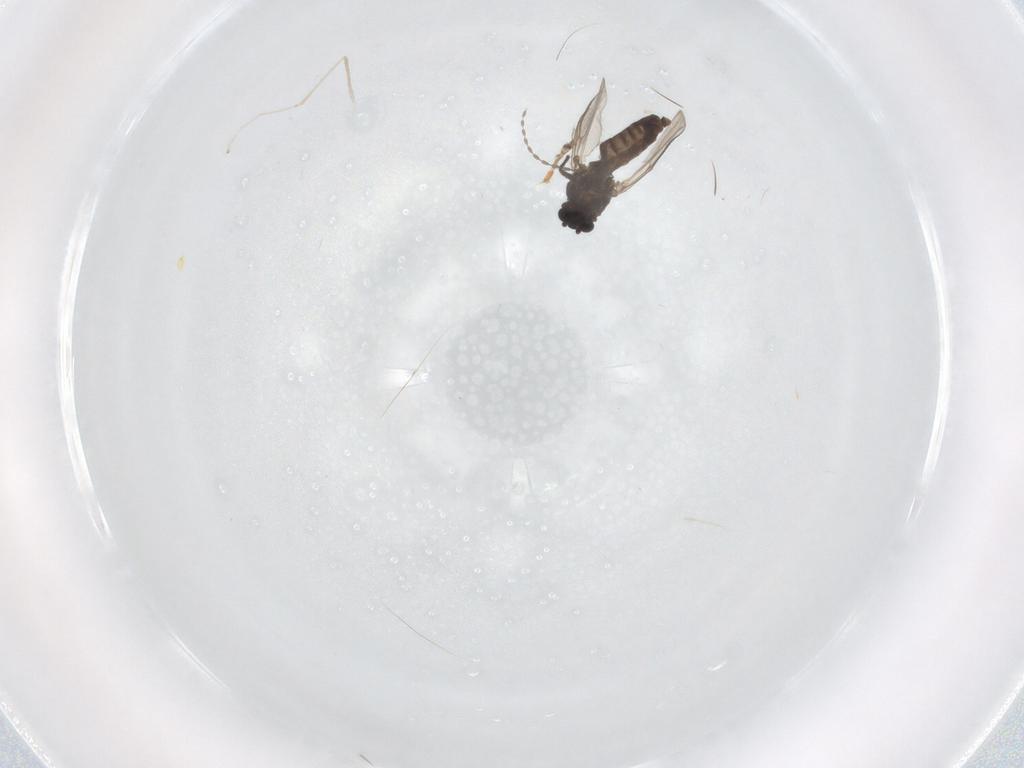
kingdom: Animalia
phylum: Arthropoda
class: Insecta
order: Diptera
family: Chironomidae
